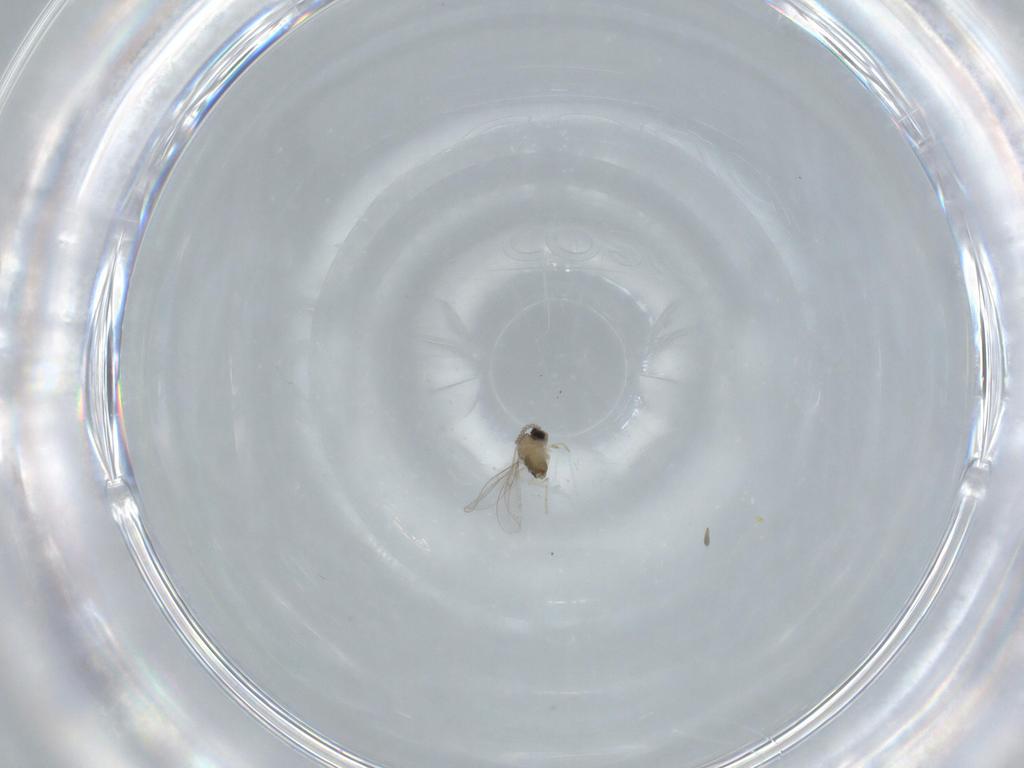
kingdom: Animalia
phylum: Arthropoda
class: Insecta
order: Diptera
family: Cecidomyiidae
